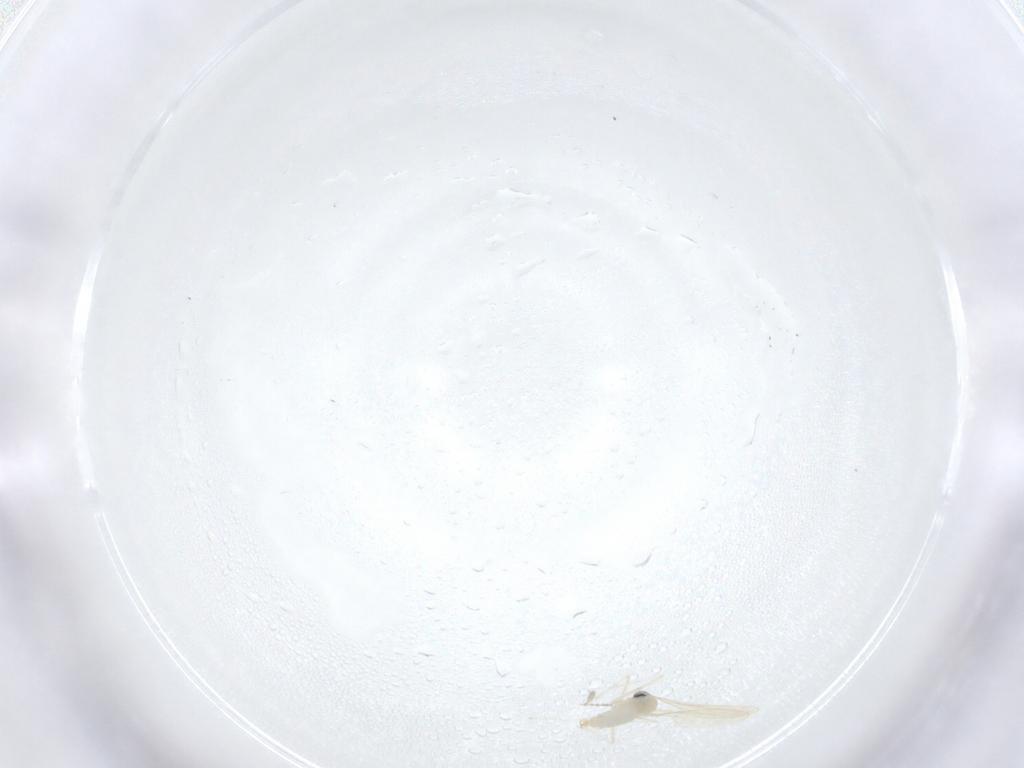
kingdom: Animalia
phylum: Arthropoda
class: Insecta
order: Diptera
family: Cecidomyiidae
